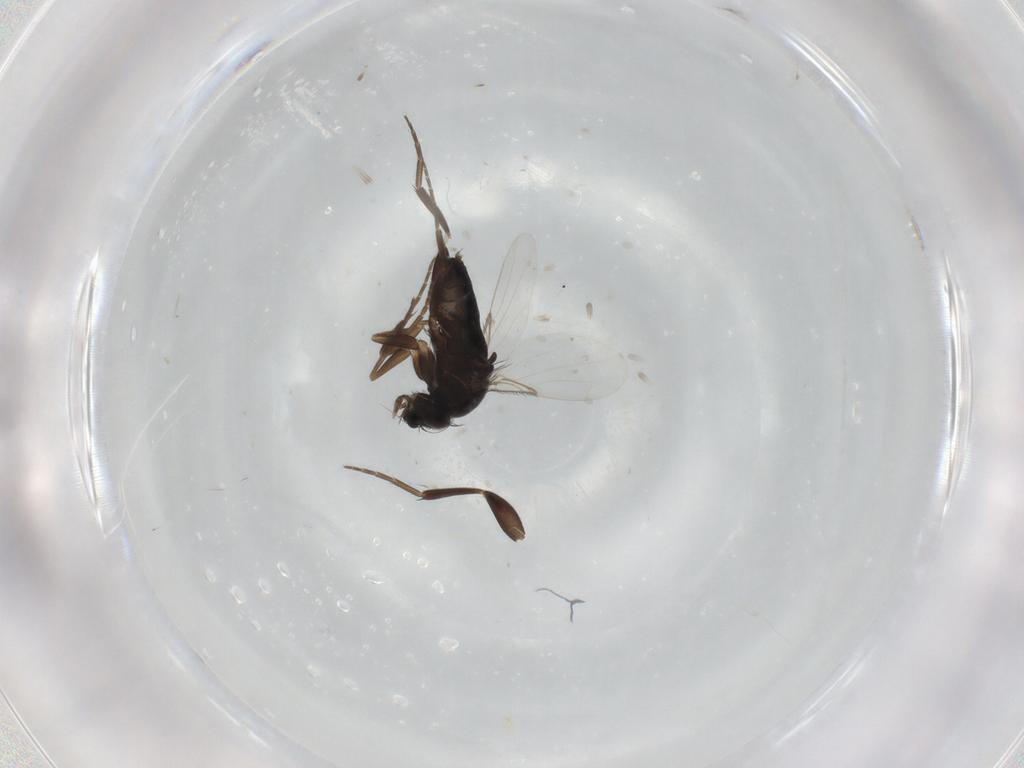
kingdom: Animalia
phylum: Arthropoda
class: Insecta
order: Diptera
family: Phoridae
